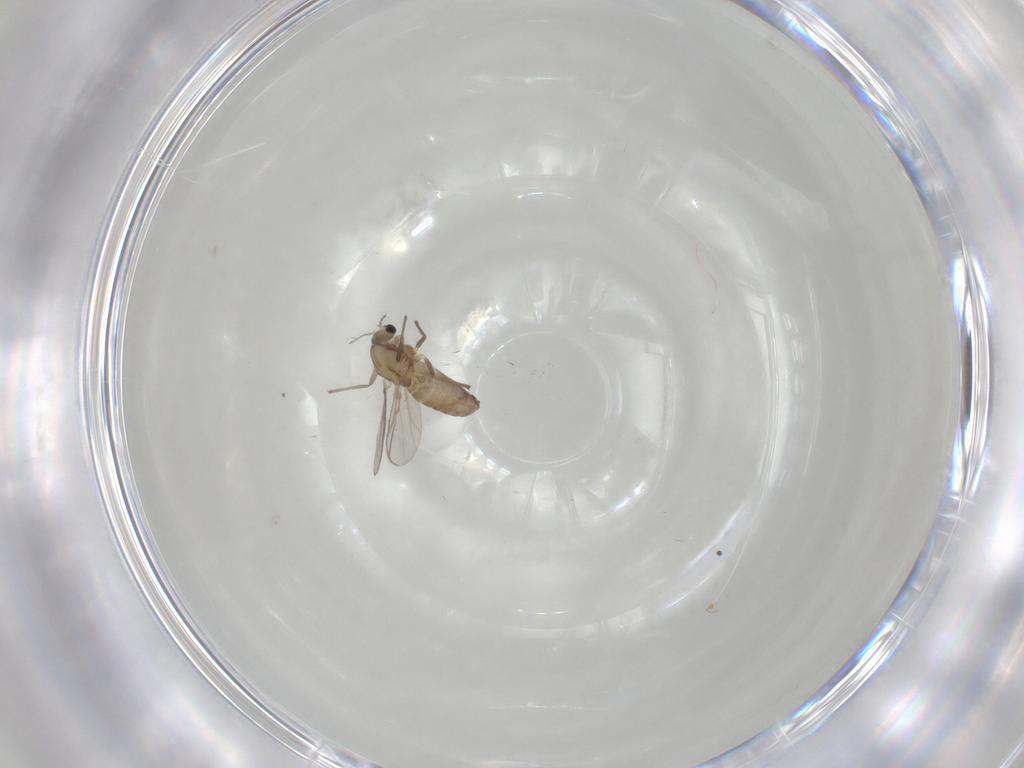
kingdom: Animalia
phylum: Arthropoda
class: Insecta
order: Diptera
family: Chironomidae
